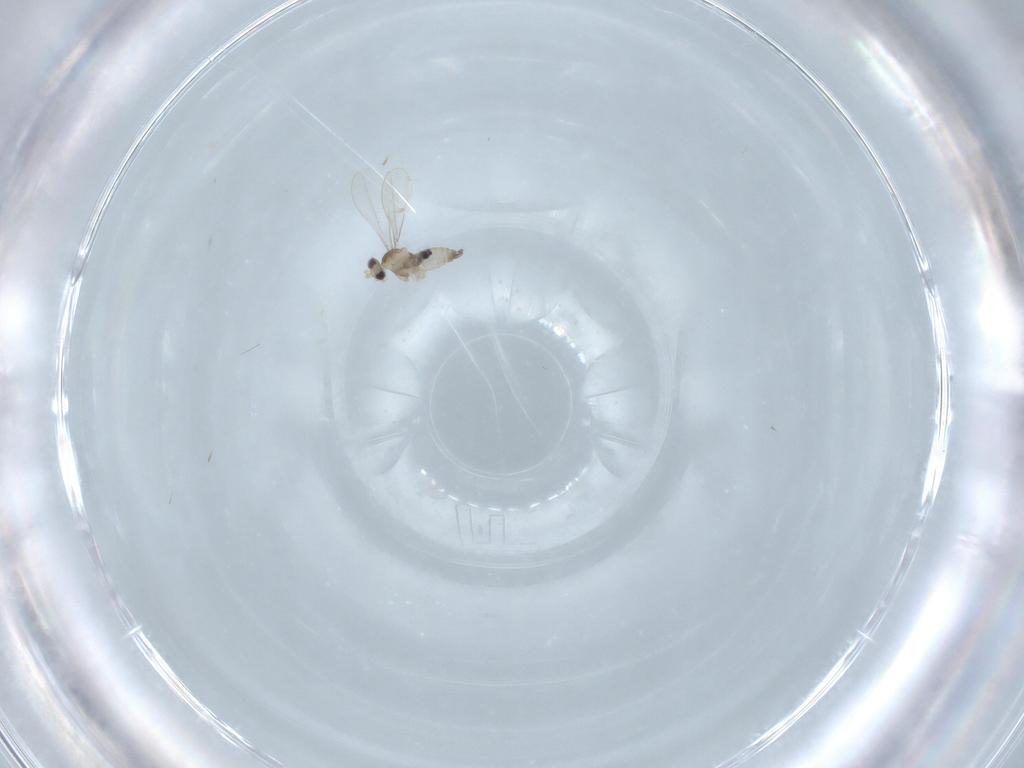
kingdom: Animalia
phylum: Arthropoda
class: Insecta
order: Diptera
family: Cecidomyiidae
